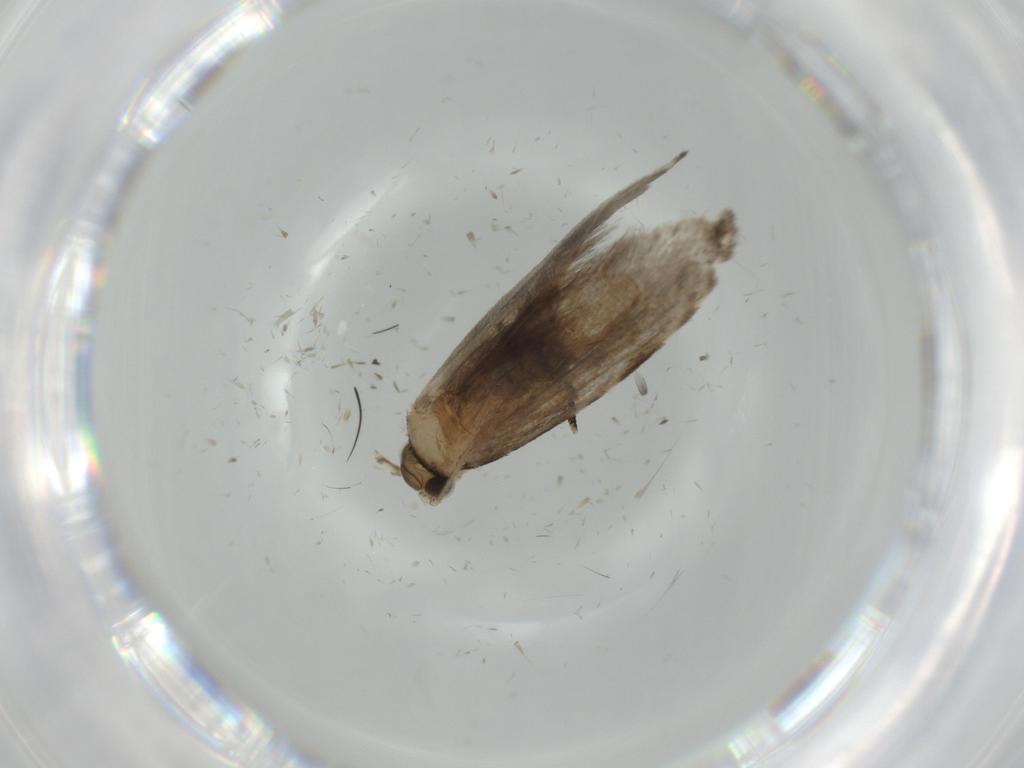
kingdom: Animalia
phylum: Arthropoda
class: Insecta
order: Lepidoptera
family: Tineidae
